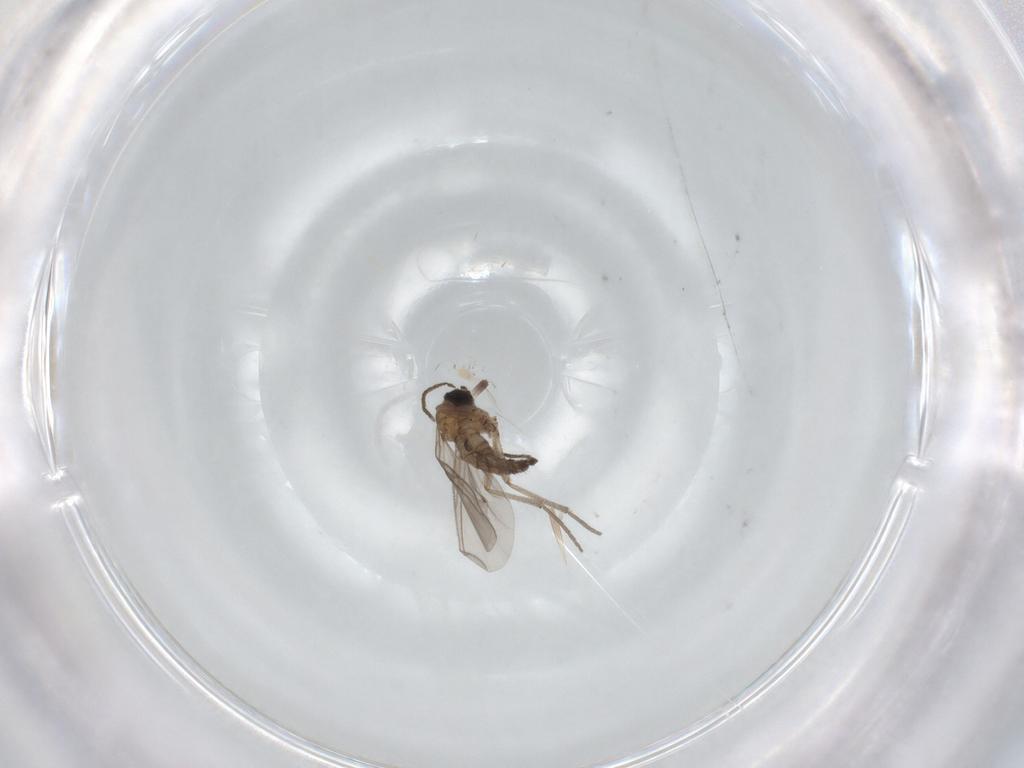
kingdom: Animalia
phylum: Arthropoda
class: Insecta
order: Diptera
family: Sciaridae
